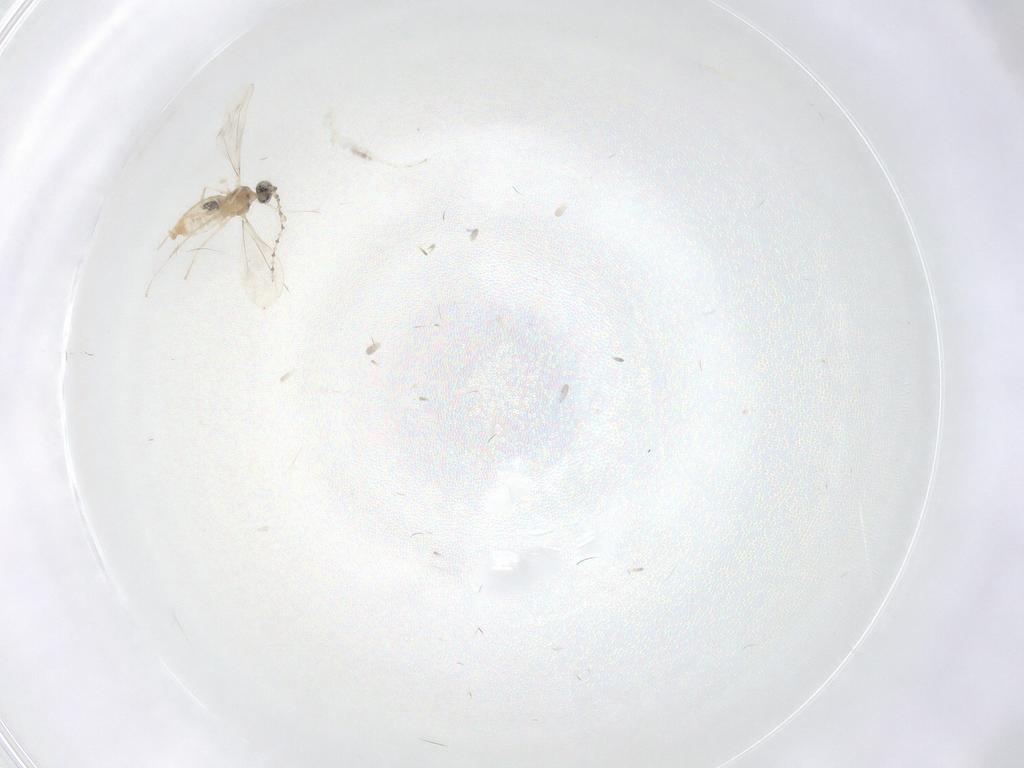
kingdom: Animalia
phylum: Arthropoda
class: Insecta
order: Diptera
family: Cecidomyiidae
